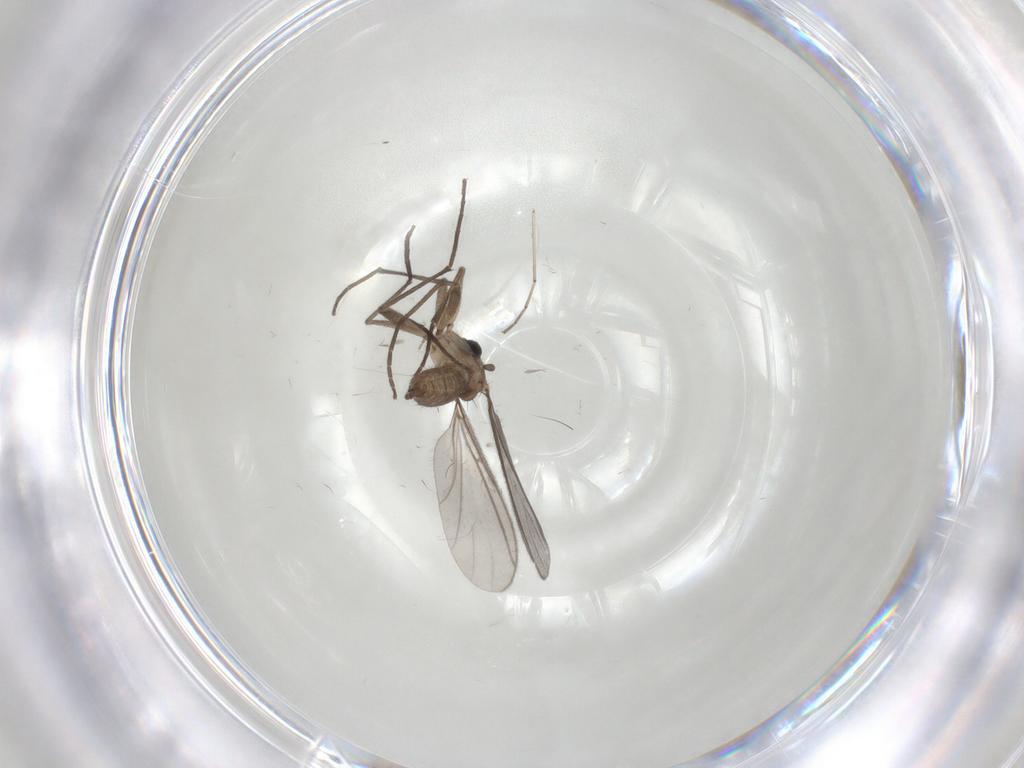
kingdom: Animalia
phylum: Arthropoda
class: Insecta
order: Diptera
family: Sciaridae
